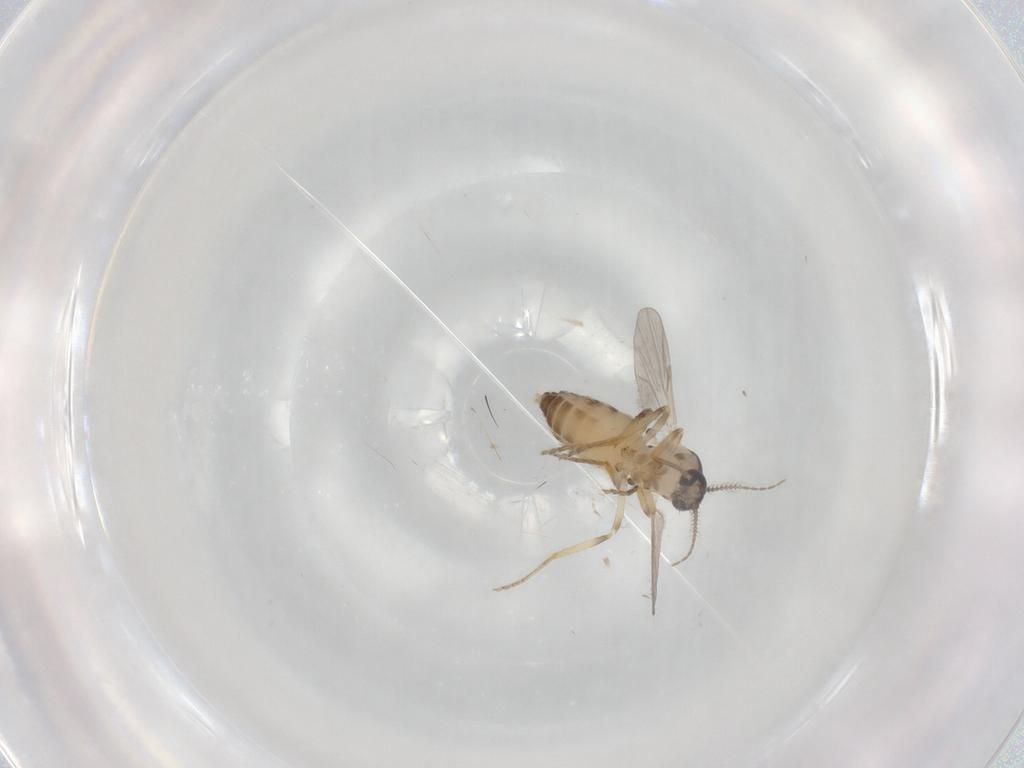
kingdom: Animalia
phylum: Arthropoda
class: Insecta
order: Diptera
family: Ceratopogonidae
